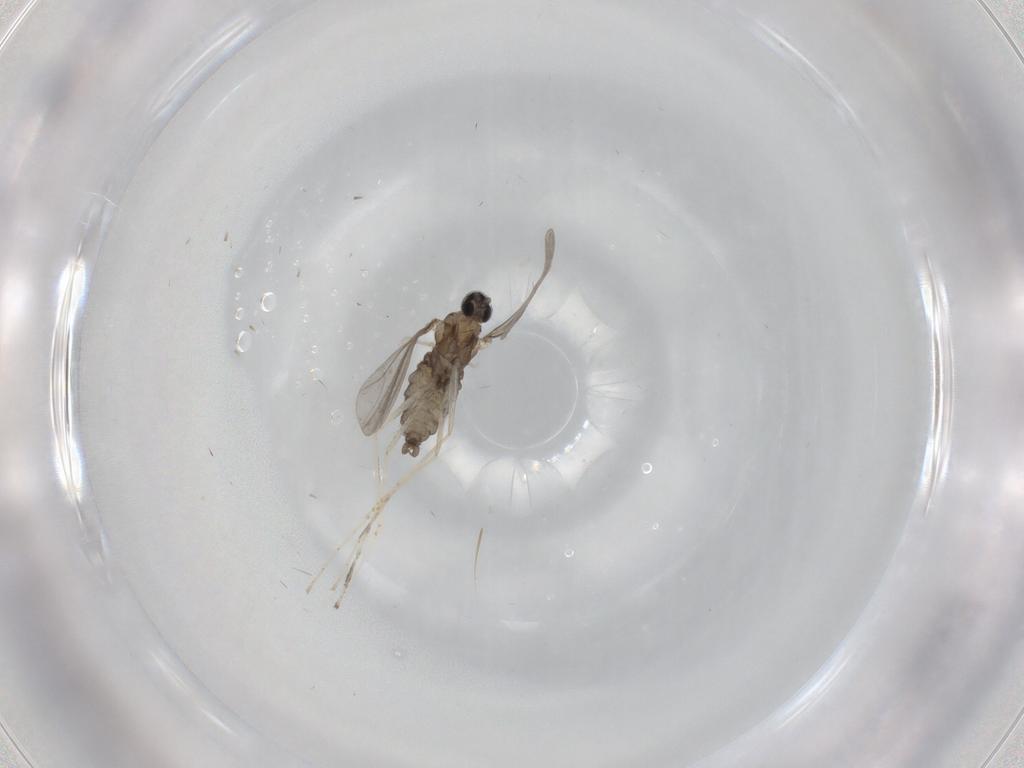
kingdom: Animalia
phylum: Arthropoda
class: Insecta
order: Diptera
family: Cecidomyiidae
